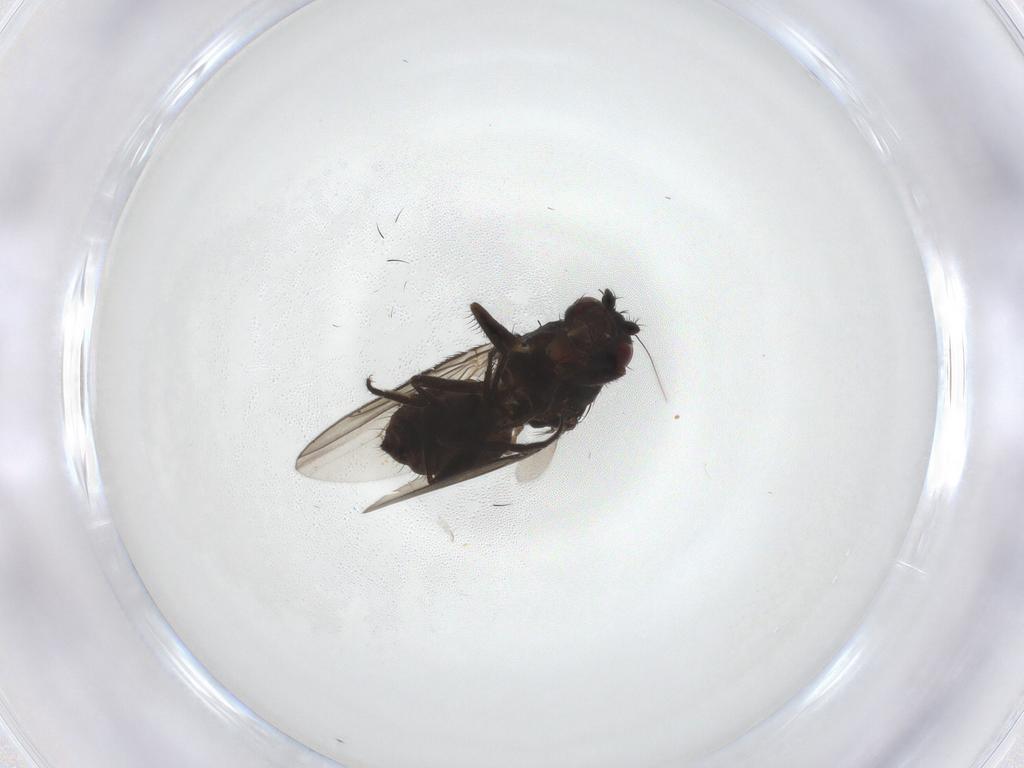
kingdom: Animalia
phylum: Arthropoda
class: Insecta
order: Diptera
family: Sphaeroceridae
